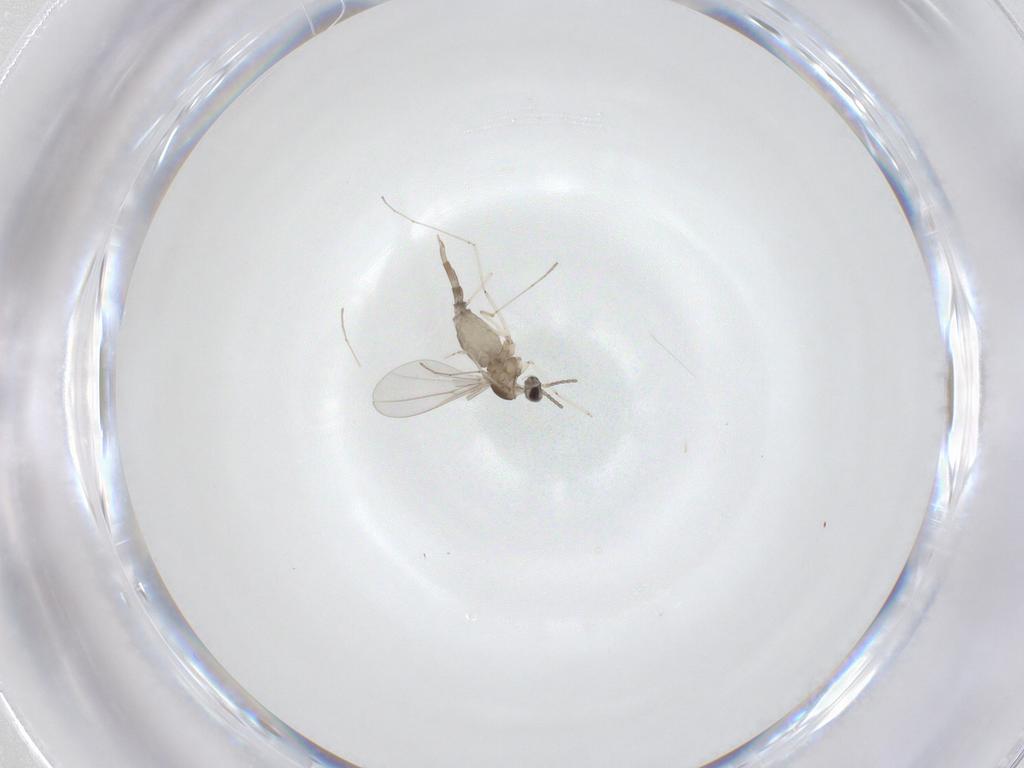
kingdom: Animalia
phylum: Arthropoda
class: Insecta
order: Diptera
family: Cecidomyiidae
